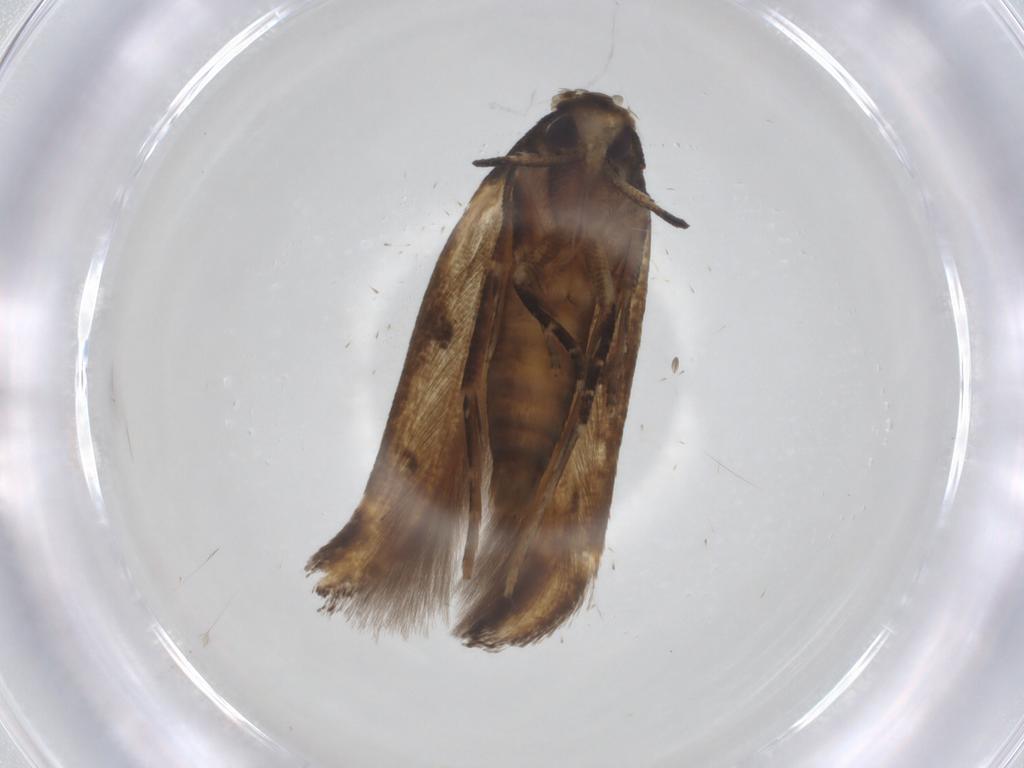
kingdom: Animalia
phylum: Arthropoda
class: Insecta
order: Lepidoptera
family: Cosmopterigidae
